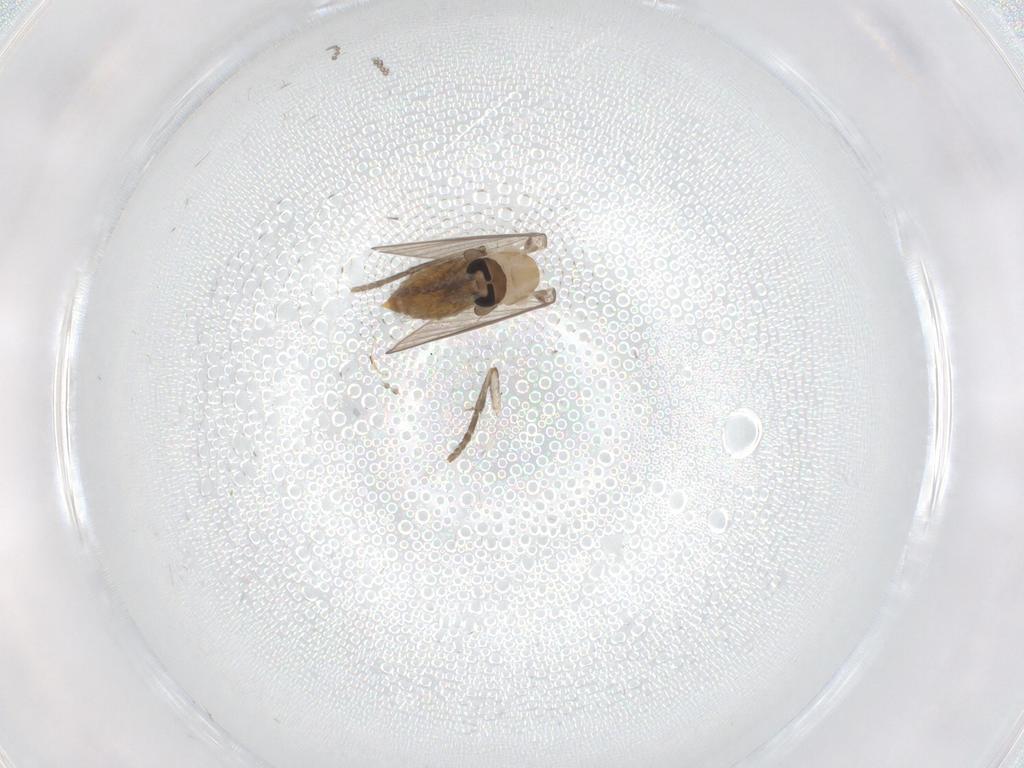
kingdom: Animalia
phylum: Arthropoda
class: Insecta
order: Diptera
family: Psychodidae
